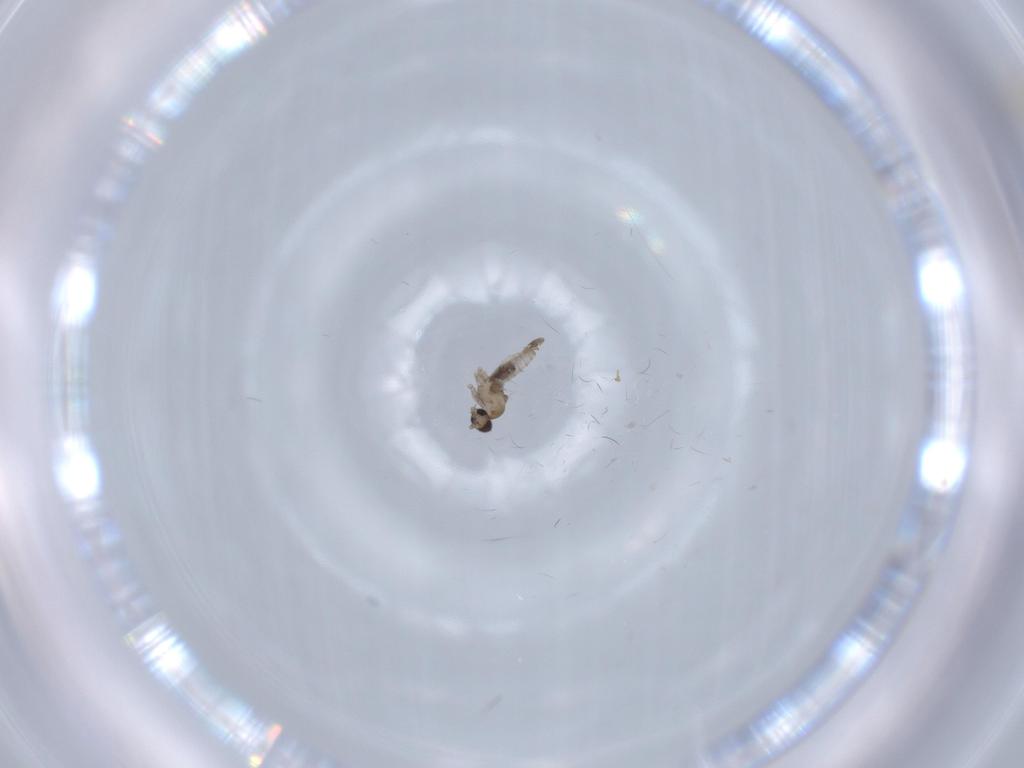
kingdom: Animalia
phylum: Arthropoda
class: Insecta
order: Diptera
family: Cecidomyiidae
